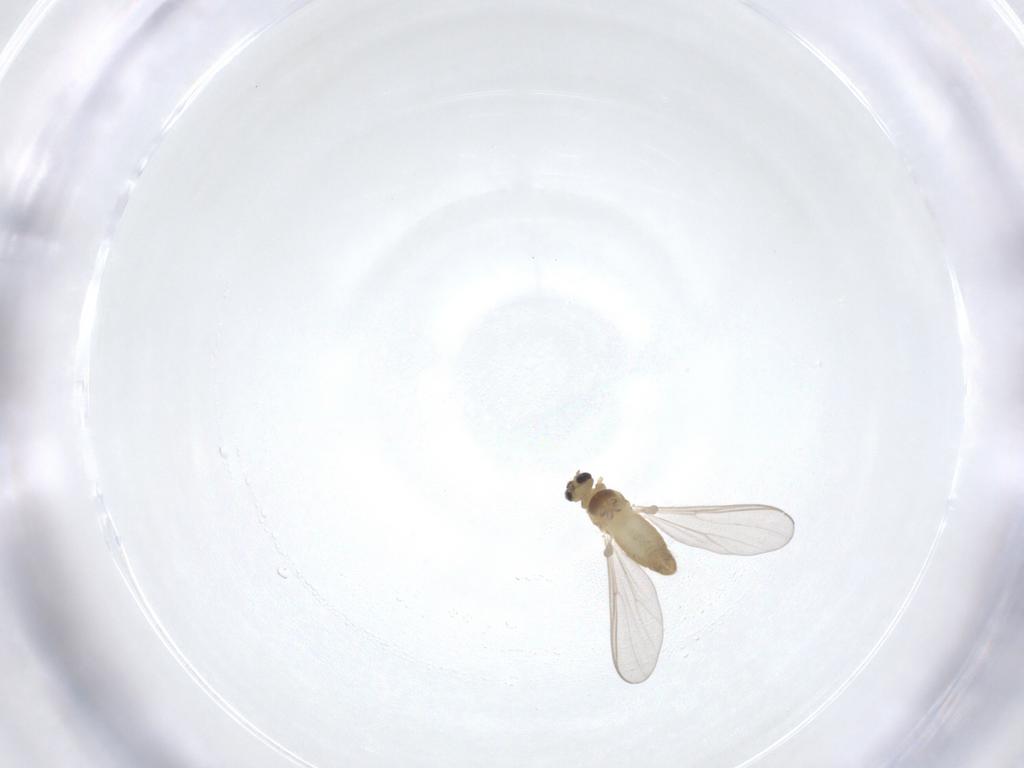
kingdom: Animalia
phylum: Arthropoda
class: Insecta
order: Diptera
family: Chironomidae
